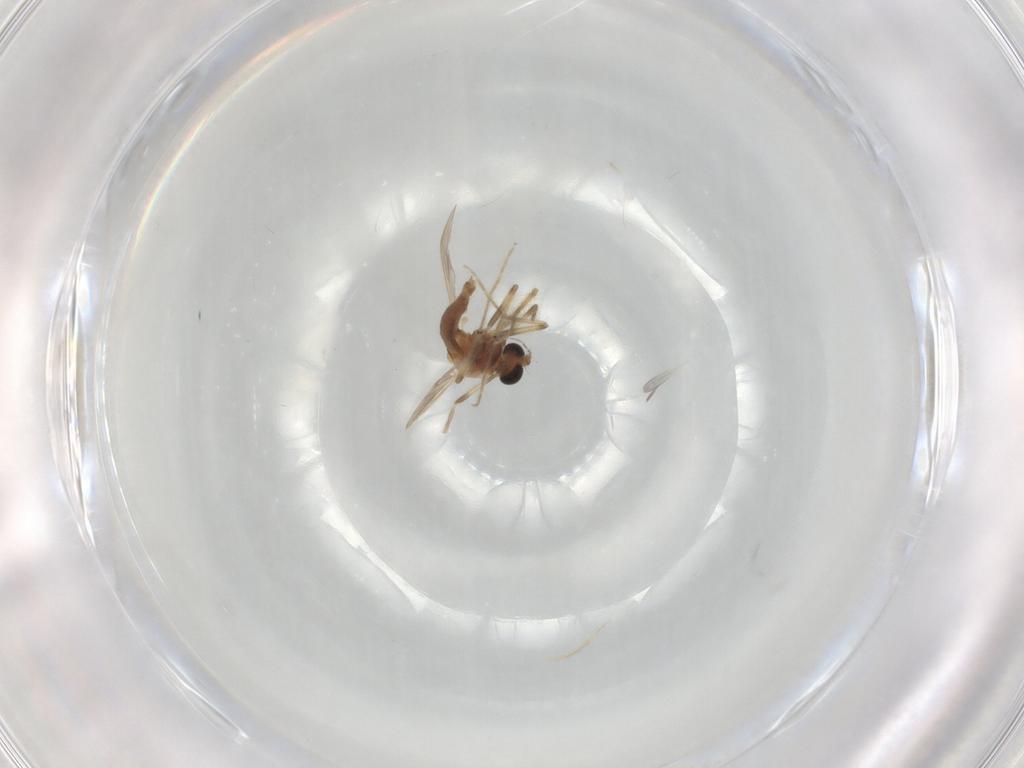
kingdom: Animalia
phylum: Arthropoda
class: Insecta
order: Diptera
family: Chironomidae
